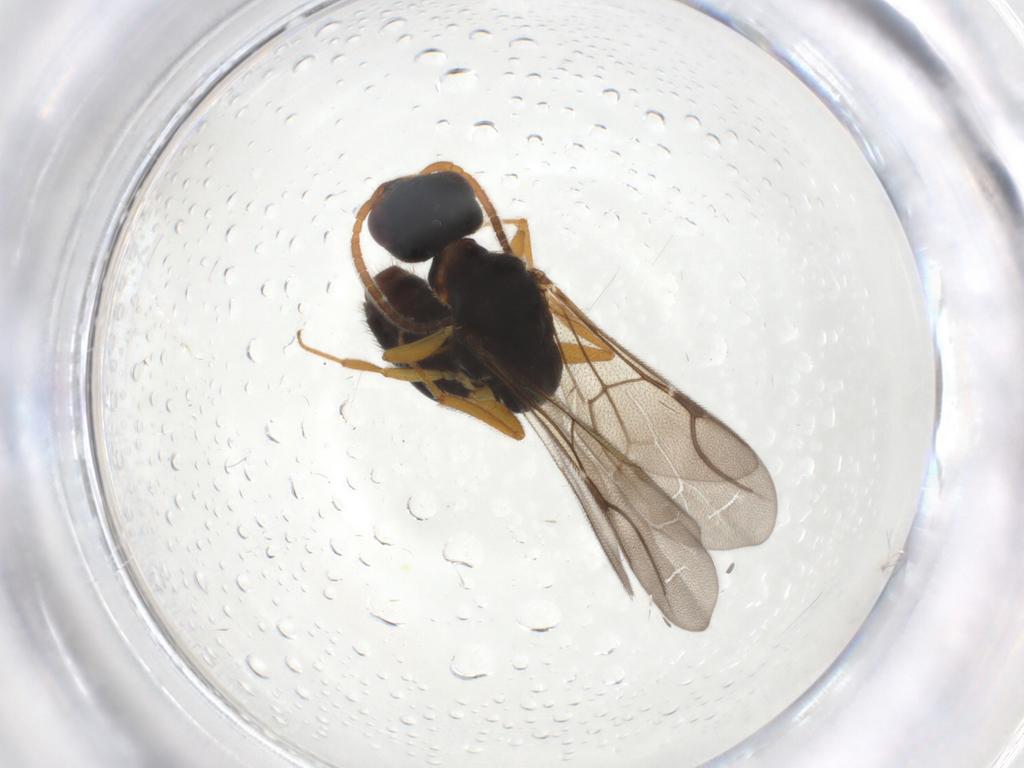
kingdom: Animalia
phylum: Arthropoda
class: Insecta
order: Hymenoptera
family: Bethylidae
